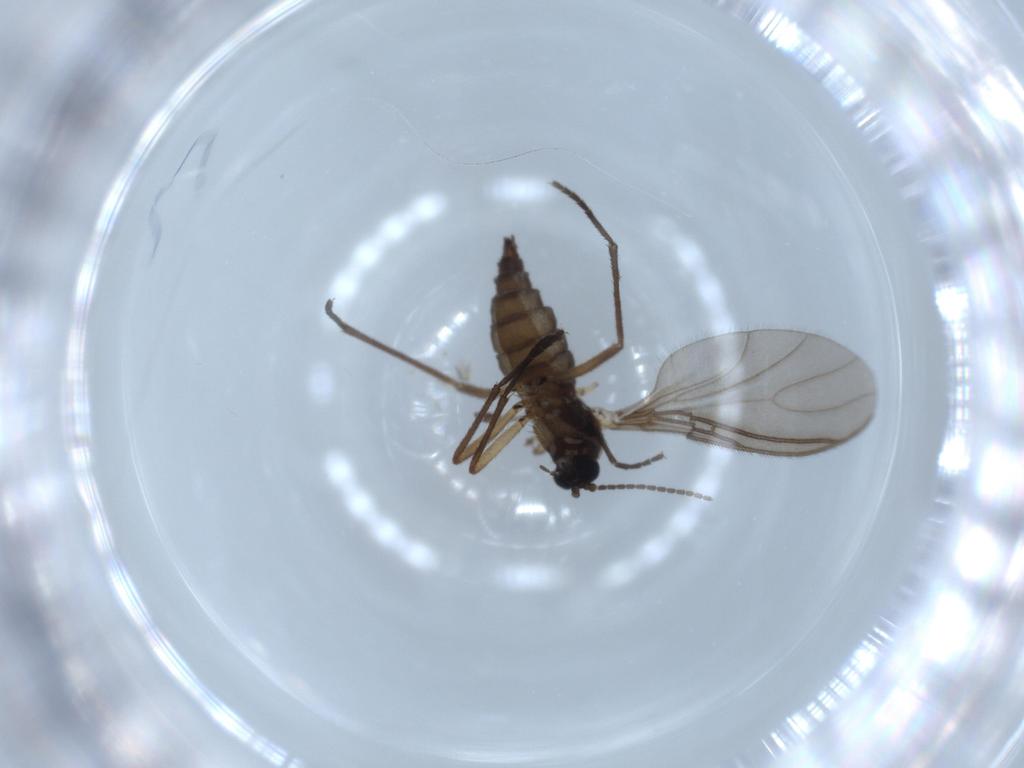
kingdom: Animalia
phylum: Arthropoda
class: Insecta
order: Diptera
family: Sciaridae
